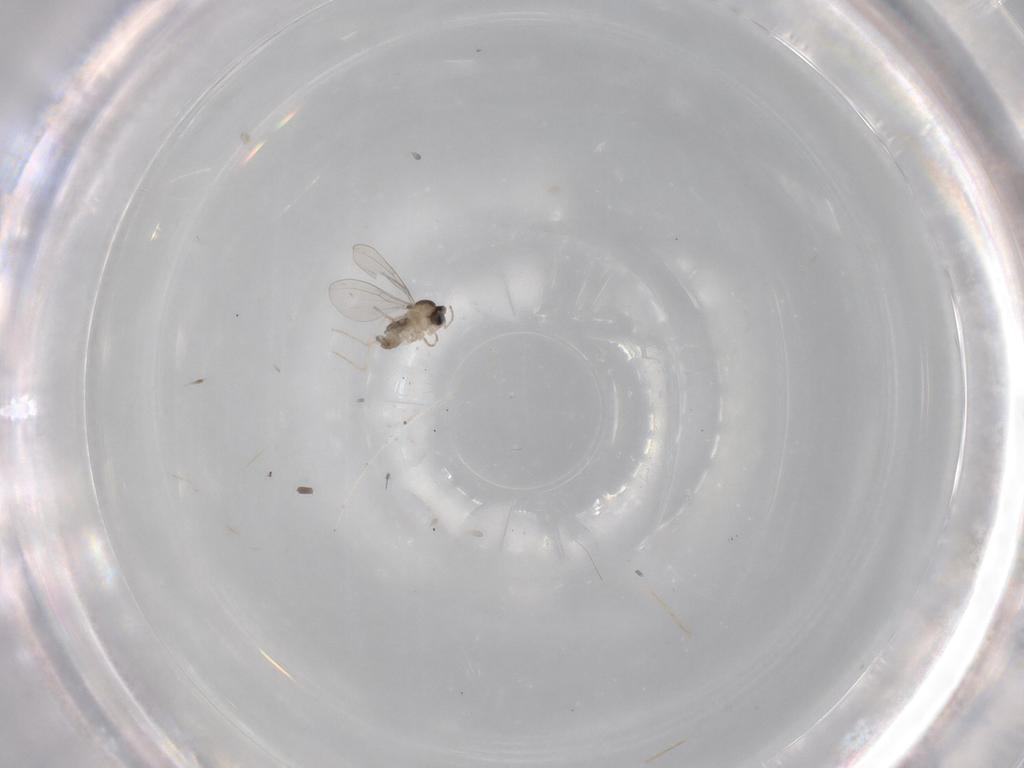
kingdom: Animalia
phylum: Arthropoda
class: Insecta
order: Diptera
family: Cecidomyiidae
